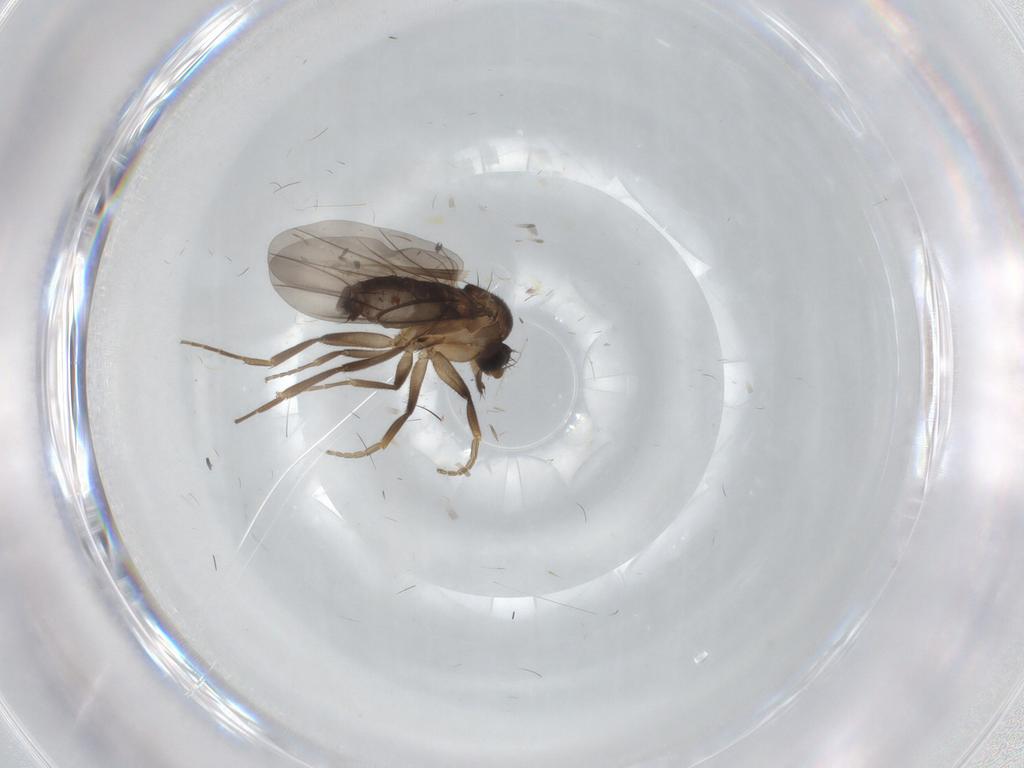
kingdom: Animalia
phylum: Arthropoda
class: Insecta
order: Diptera
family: Phoridae
